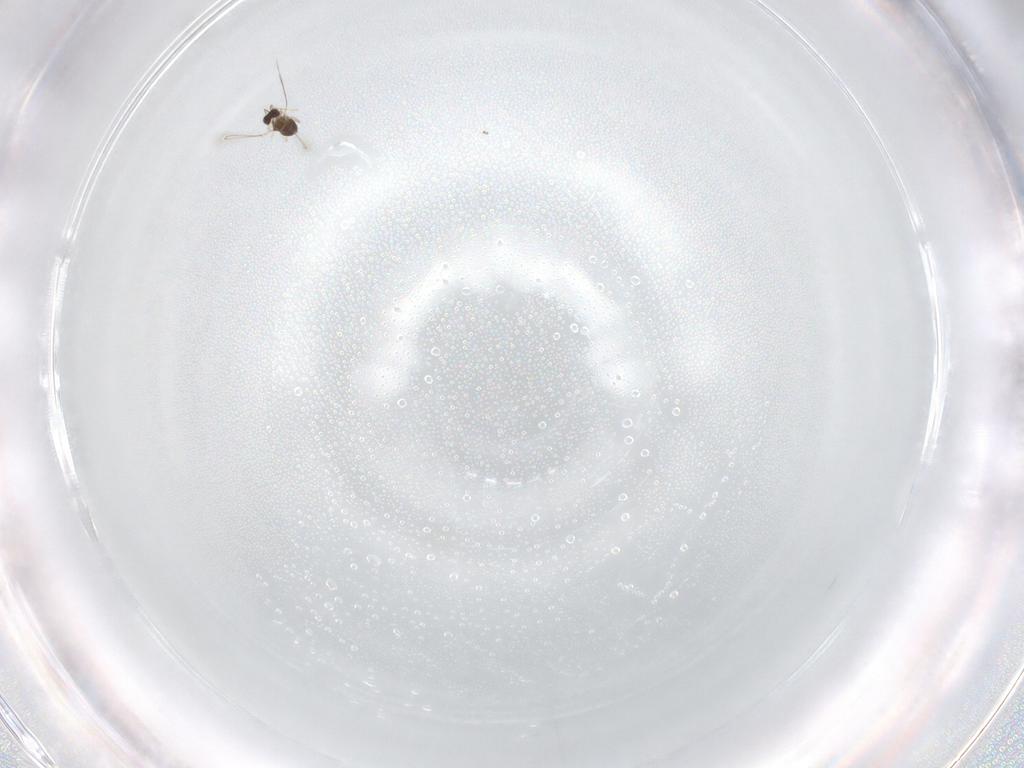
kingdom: Animalia
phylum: Arthropoda
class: Insecta
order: Hymenoptera
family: Ichneumonidae
